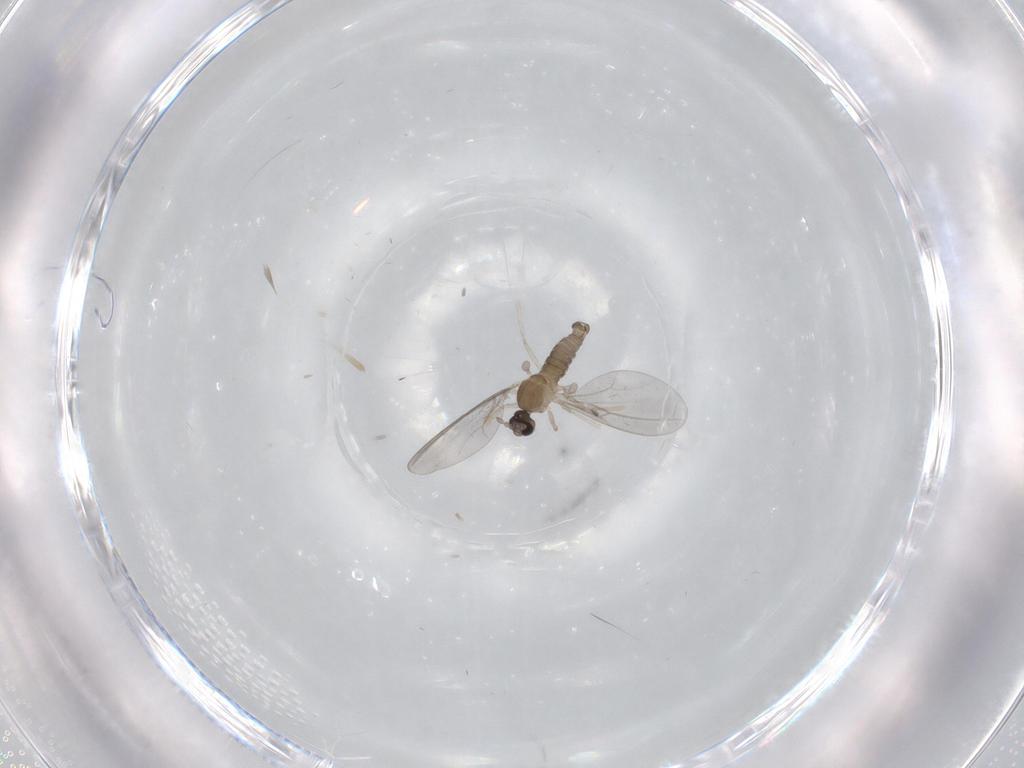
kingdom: Animalia
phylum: Arthropoda
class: Insecta
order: Diptera
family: Cecidomyiidae
